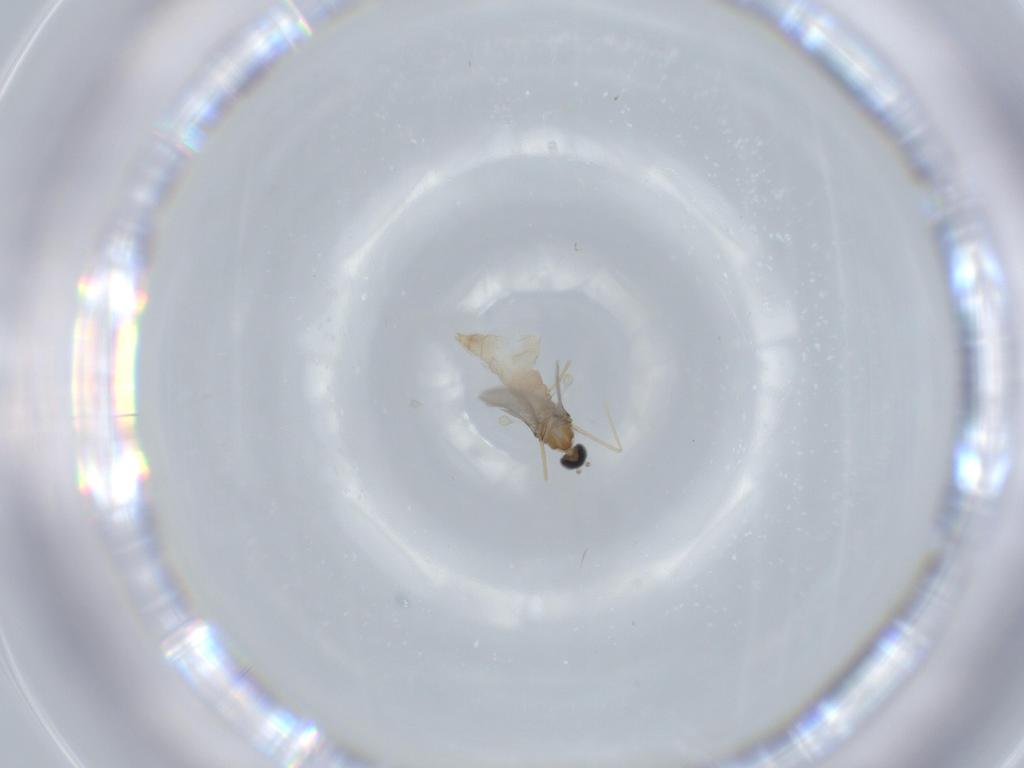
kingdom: Animalia
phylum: Arthropoda
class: Insecta
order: Diptera
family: Cecidomyiidae
